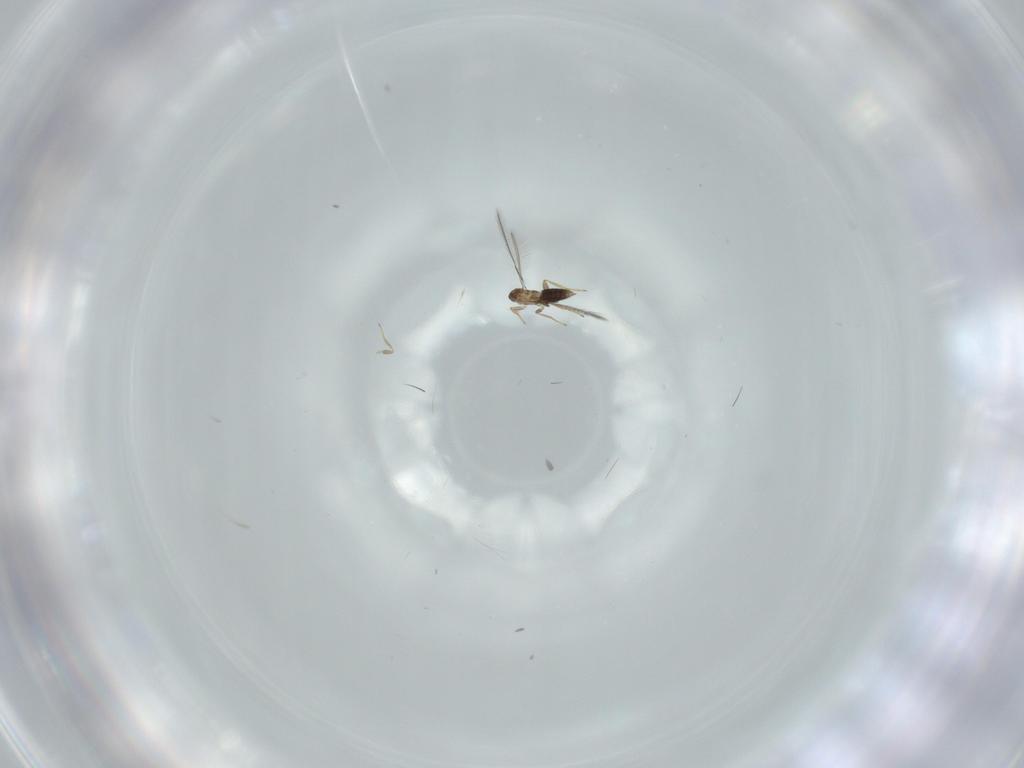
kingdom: Animalia
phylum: Arthropoda
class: Insecta
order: Hymenoptera
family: Mymaridae
